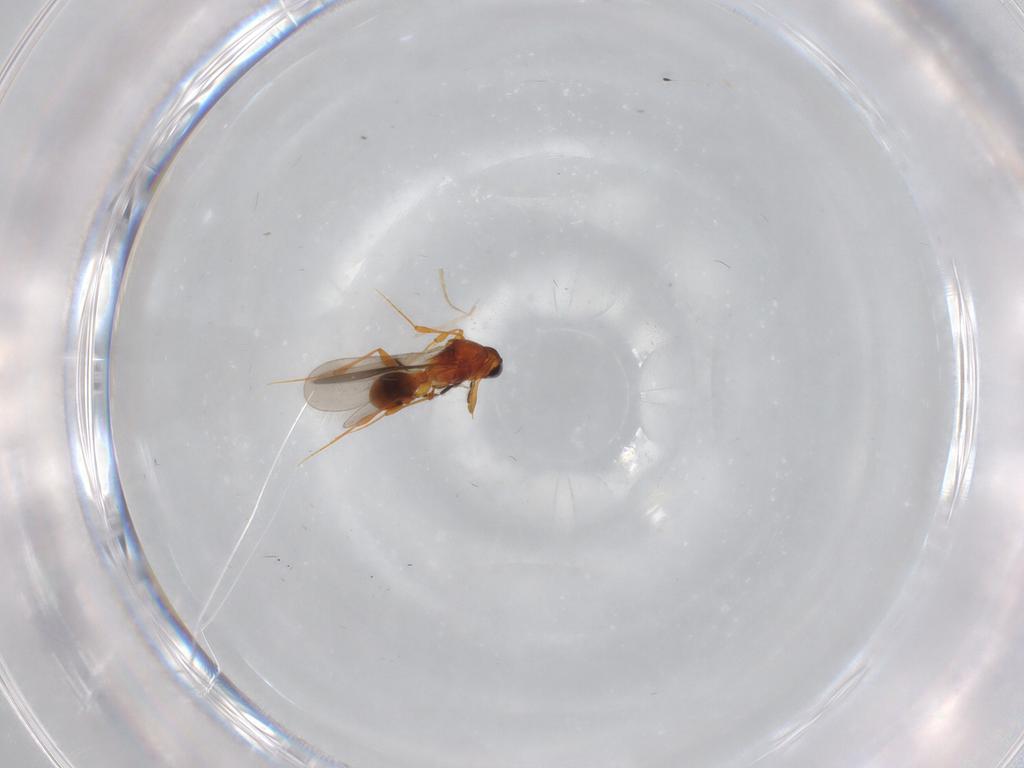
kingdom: Animalia
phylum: Arthropoda
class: Insecta
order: Hymenoptera
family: Platygastridae
